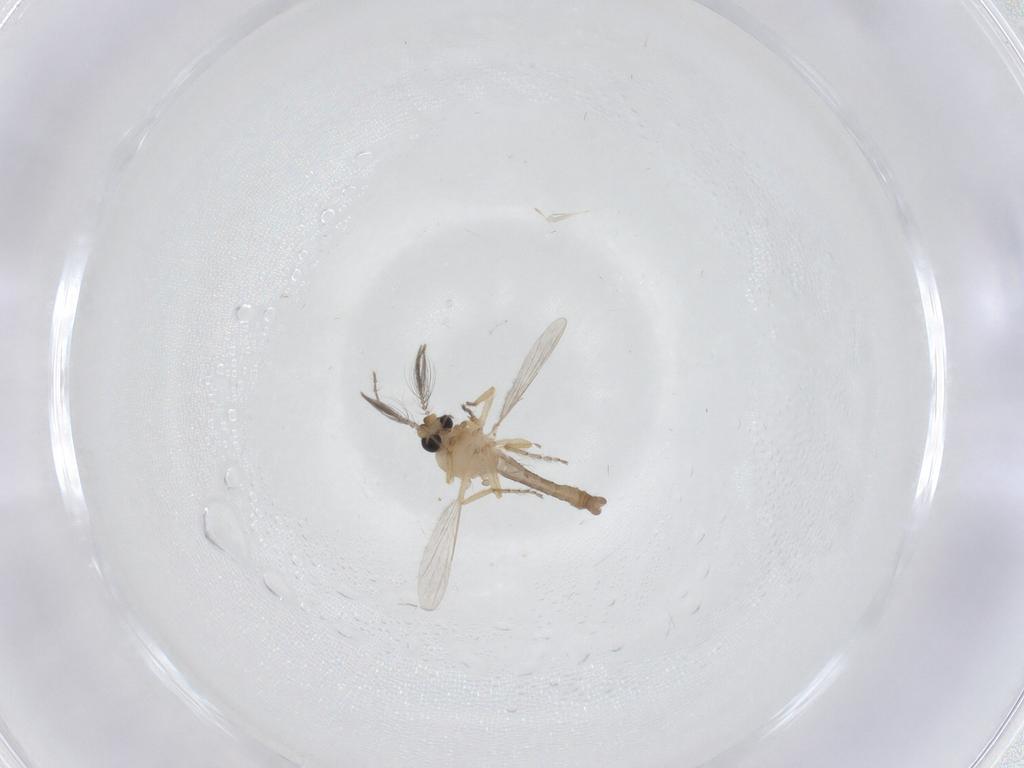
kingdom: Animalia
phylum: Arthropoda
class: Insecta
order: Diptera
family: Ceratopogonidae
